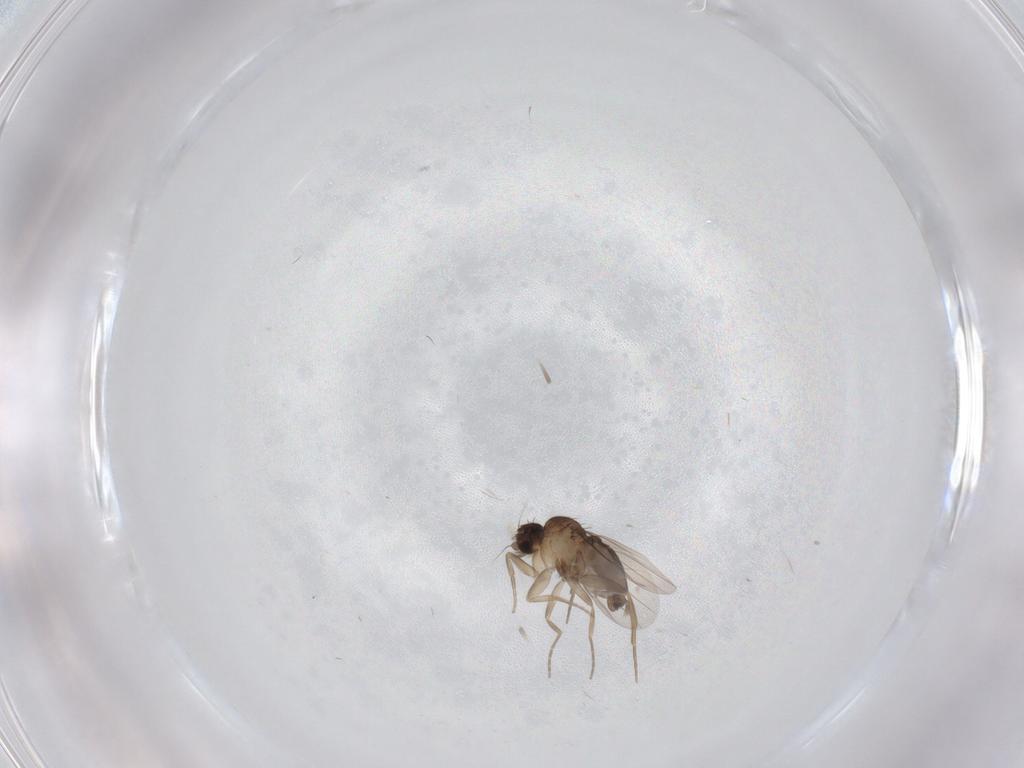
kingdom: Animalia
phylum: Arthropoda
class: Insecta
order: Diptera
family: Phoridae
